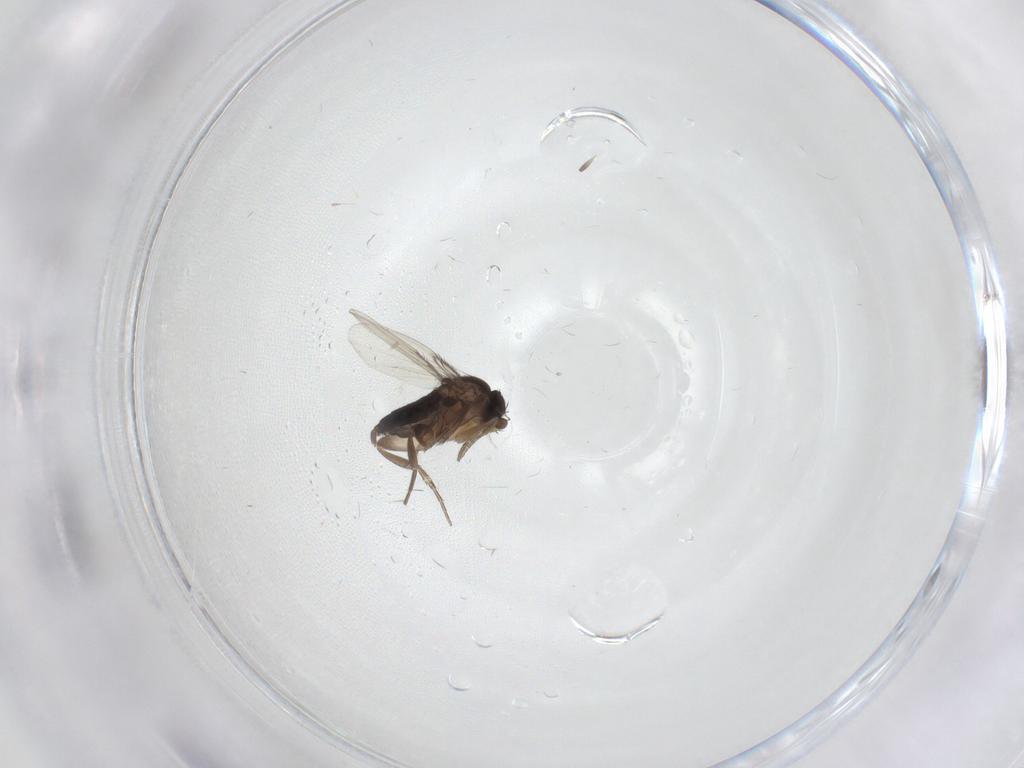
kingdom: Animalia
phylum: Arthropoda
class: Insecta
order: Diptera
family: Phoridae
